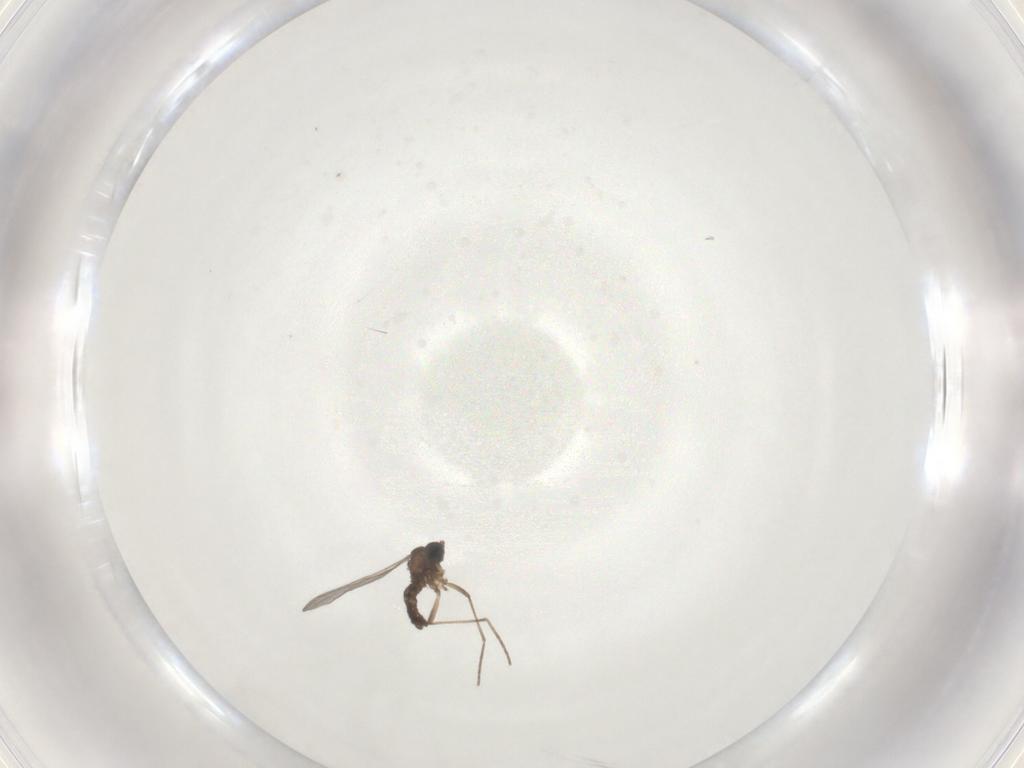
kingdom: Animalia
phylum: Arthropoda
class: Insecta
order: Diptera
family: Sciaridae
